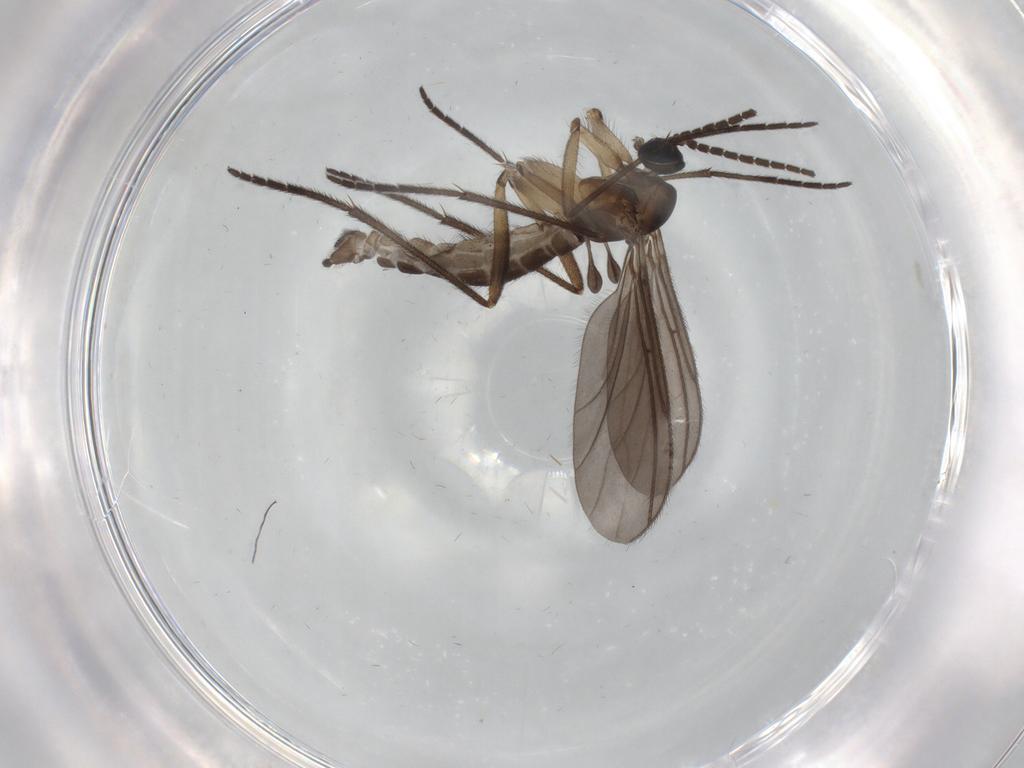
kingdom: Animalia
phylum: Arthropoda
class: Insecta
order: Diptera
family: Sciaridae
